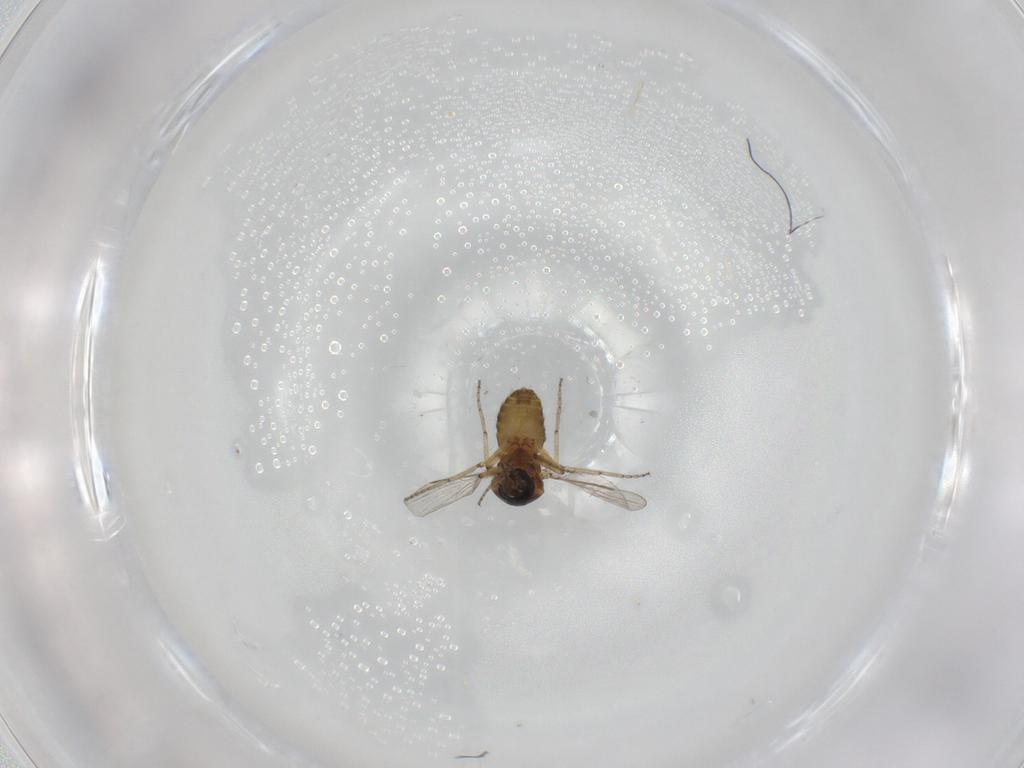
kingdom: Animalia
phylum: Arthropoda
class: Insecta
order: Diptera
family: Ceratopogonidae
